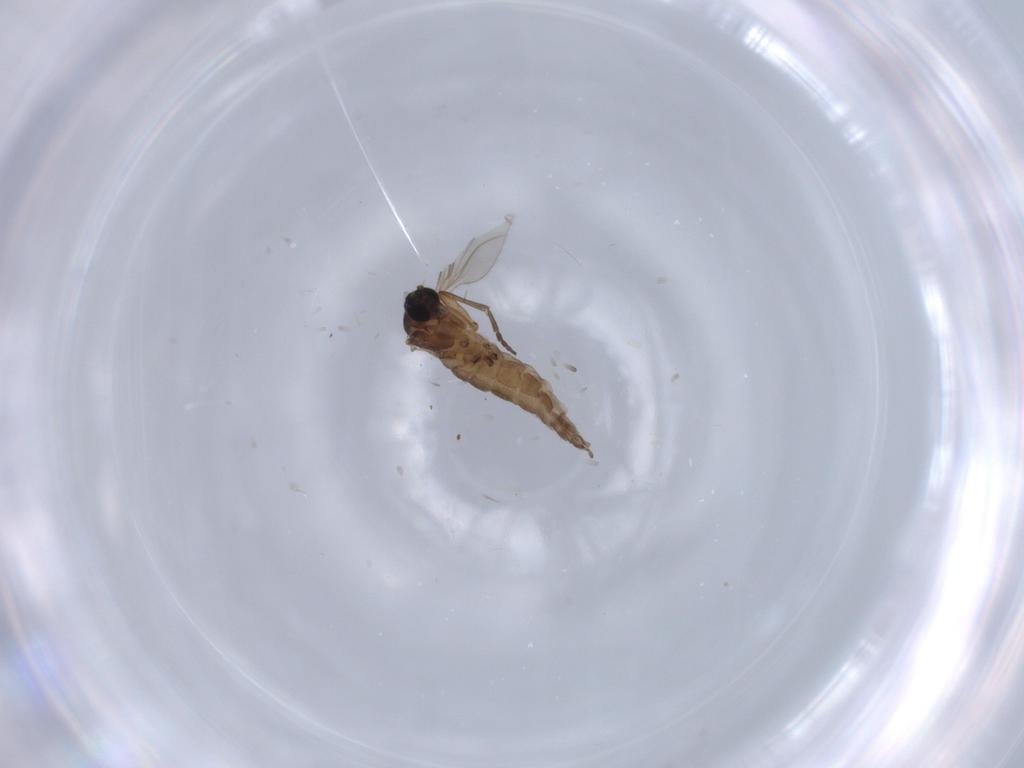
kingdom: Animalia
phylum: Arthropoda
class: Insecta
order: Diptera
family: Sciaridae
